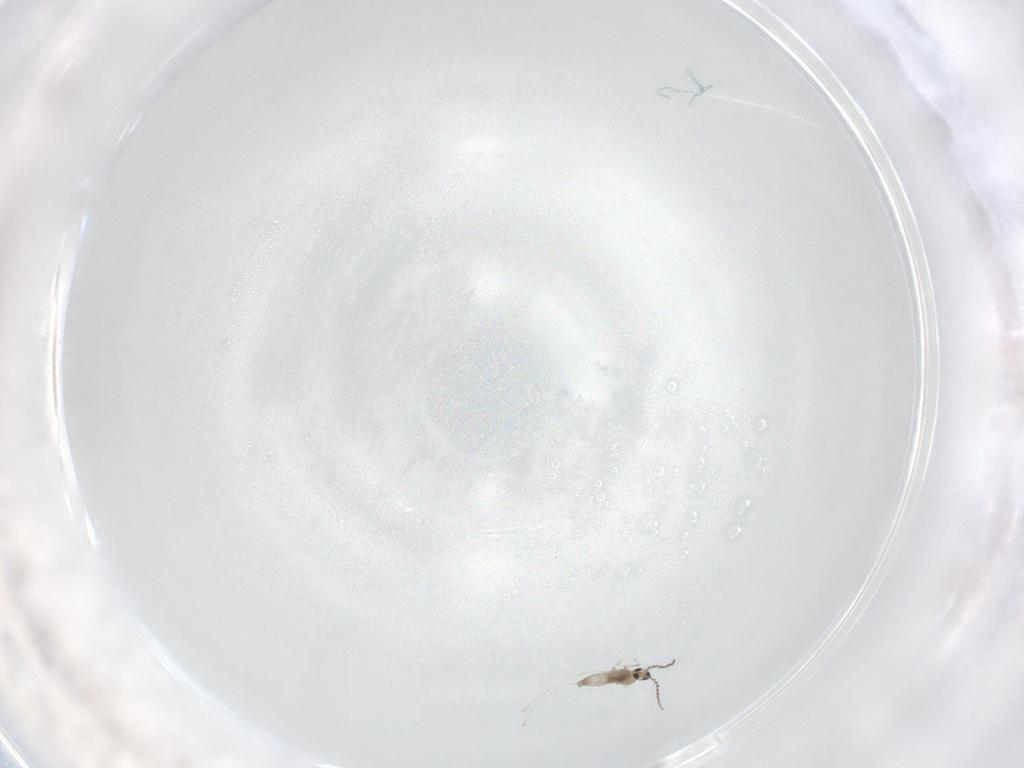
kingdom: Animalia
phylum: Arthropoda
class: Insecta
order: Diptera
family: Cecidomyiidae
